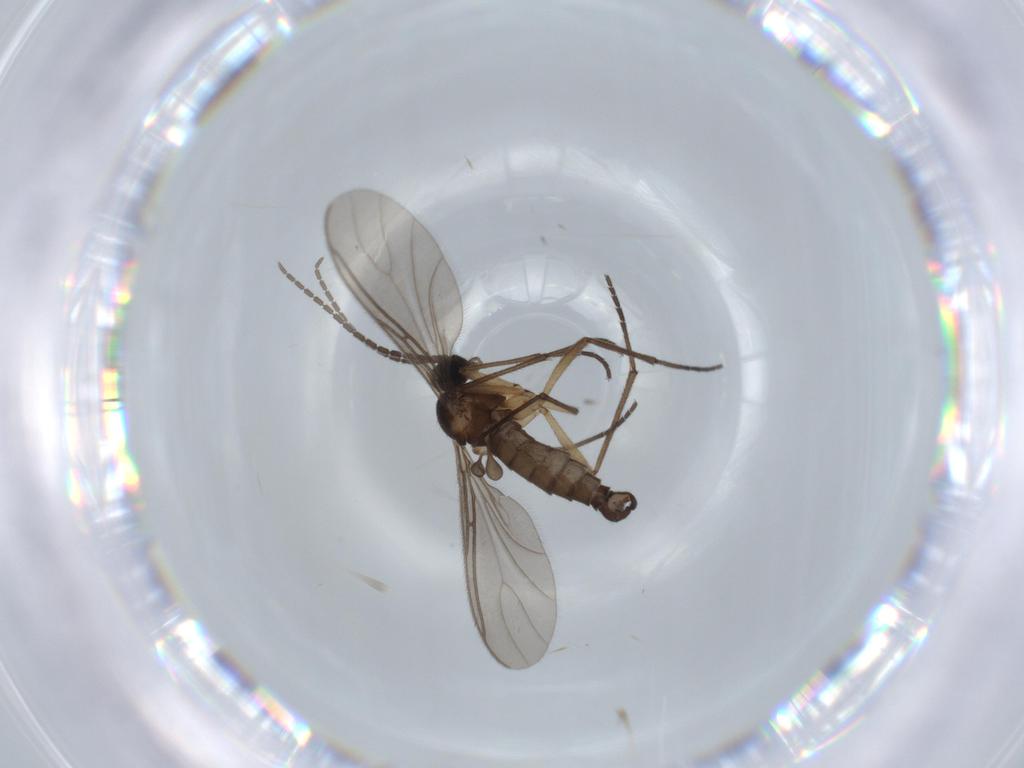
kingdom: Animalia
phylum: Arthropoda
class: Insecta
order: Diptera
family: Sciaridae
